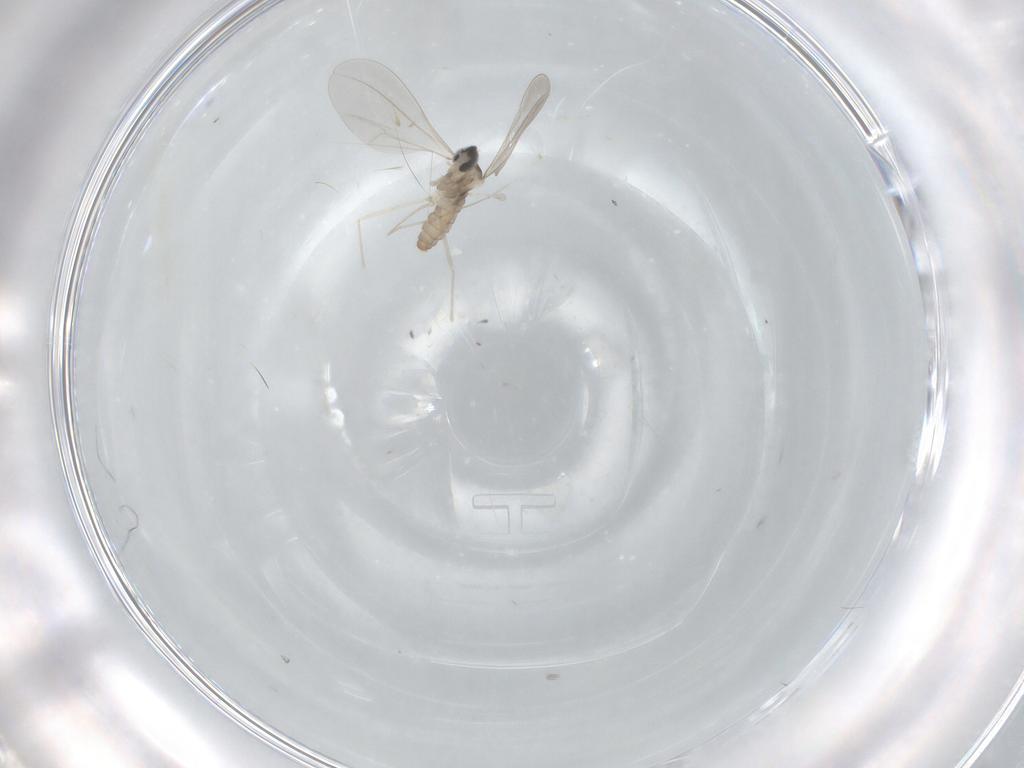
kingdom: Animalia
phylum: Arthropoda
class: Insecta
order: Diptera
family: Cecidomyiidae
